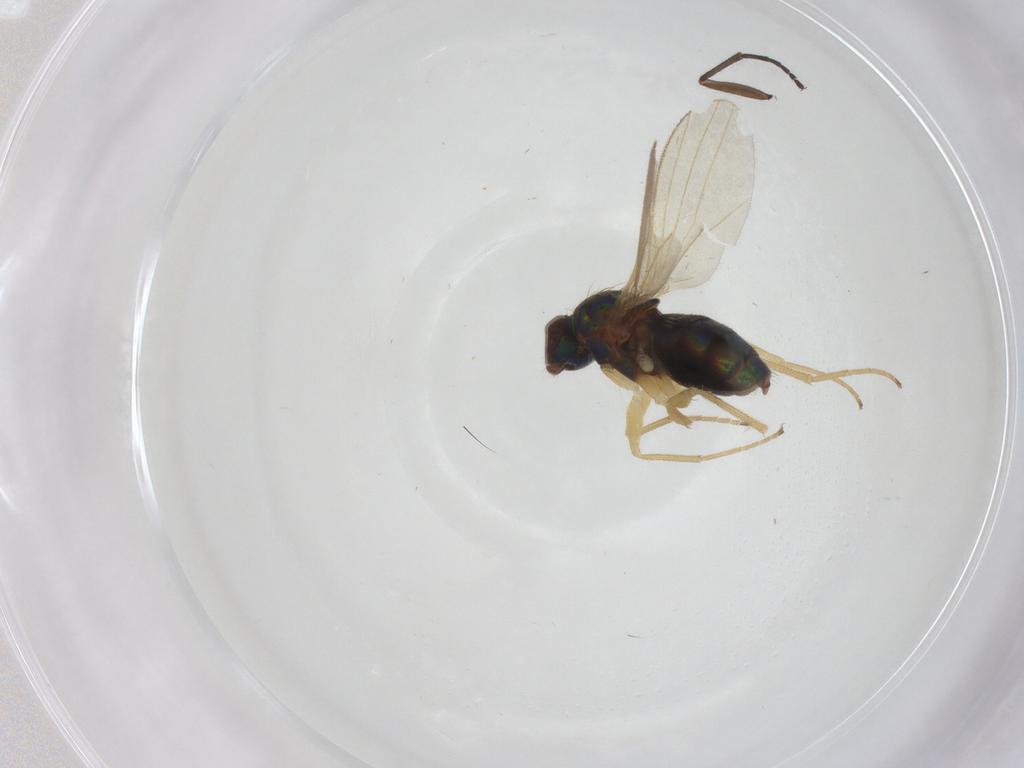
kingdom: Animalia
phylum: Arthropoda
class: Insecta
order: Diptera
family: Dolichopodidae
